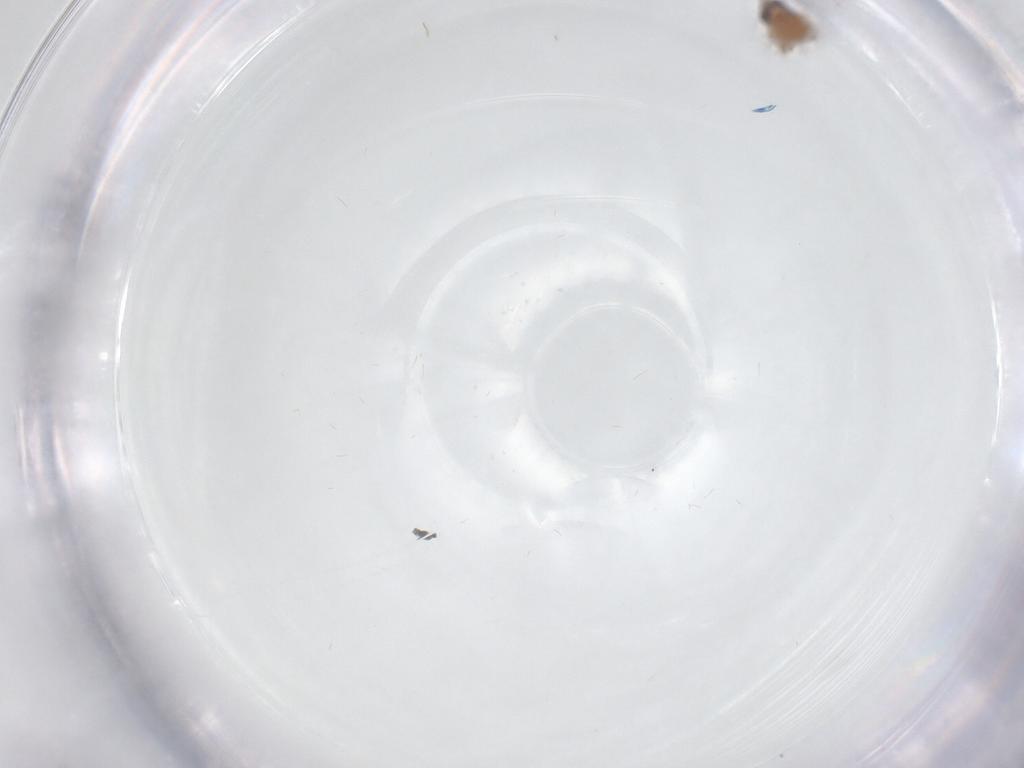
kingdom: Animalia
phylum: Arthropoda
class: Insecta
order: Diptera
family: Psychodidae
